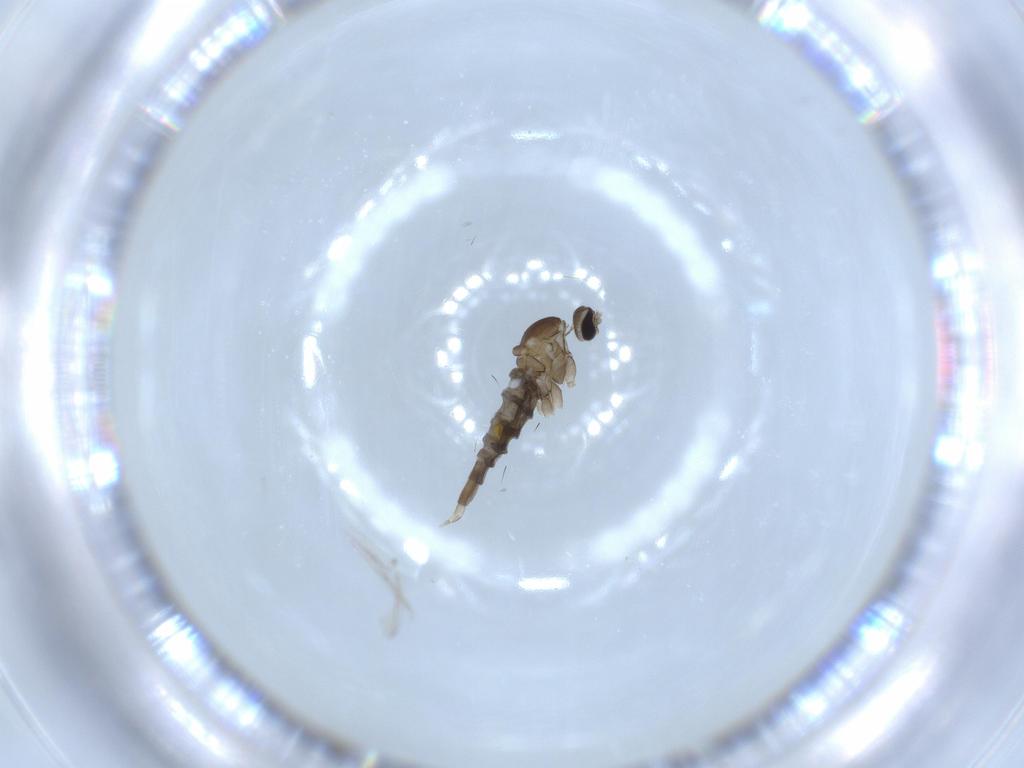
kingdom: Animalia
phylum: Arthropoda
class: Insecta
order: Diptera
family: Cecidomyiidae
